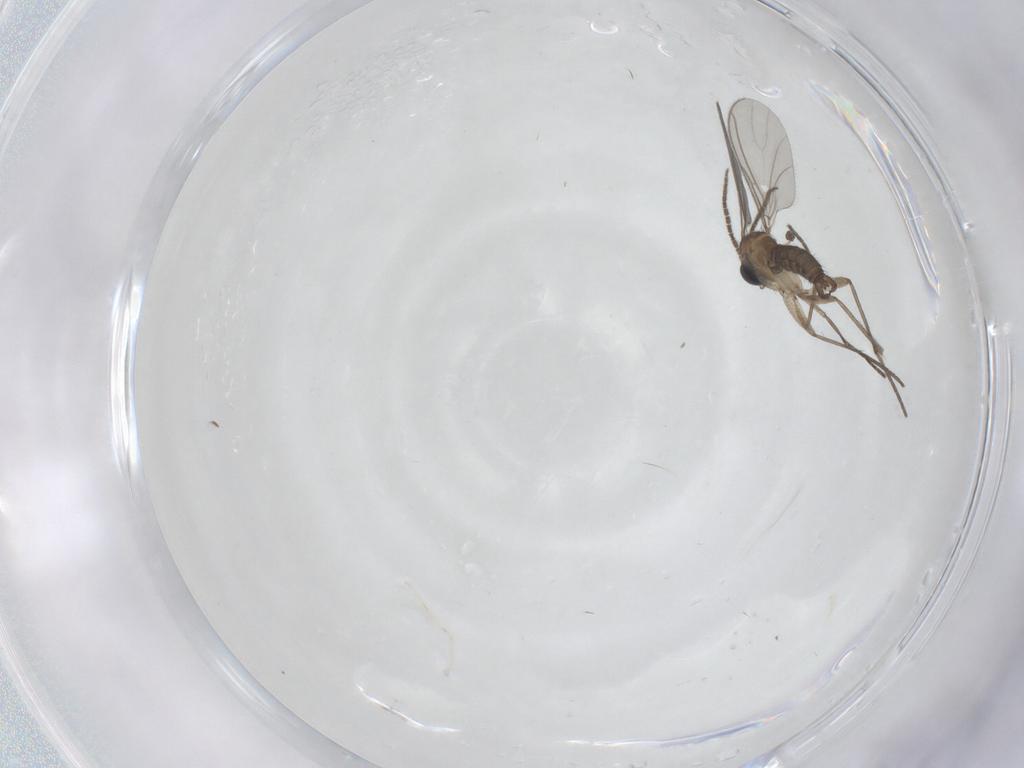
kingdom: Animalia
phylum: Arthropoda
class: Insecta
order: Diptera
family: Sciaridae
